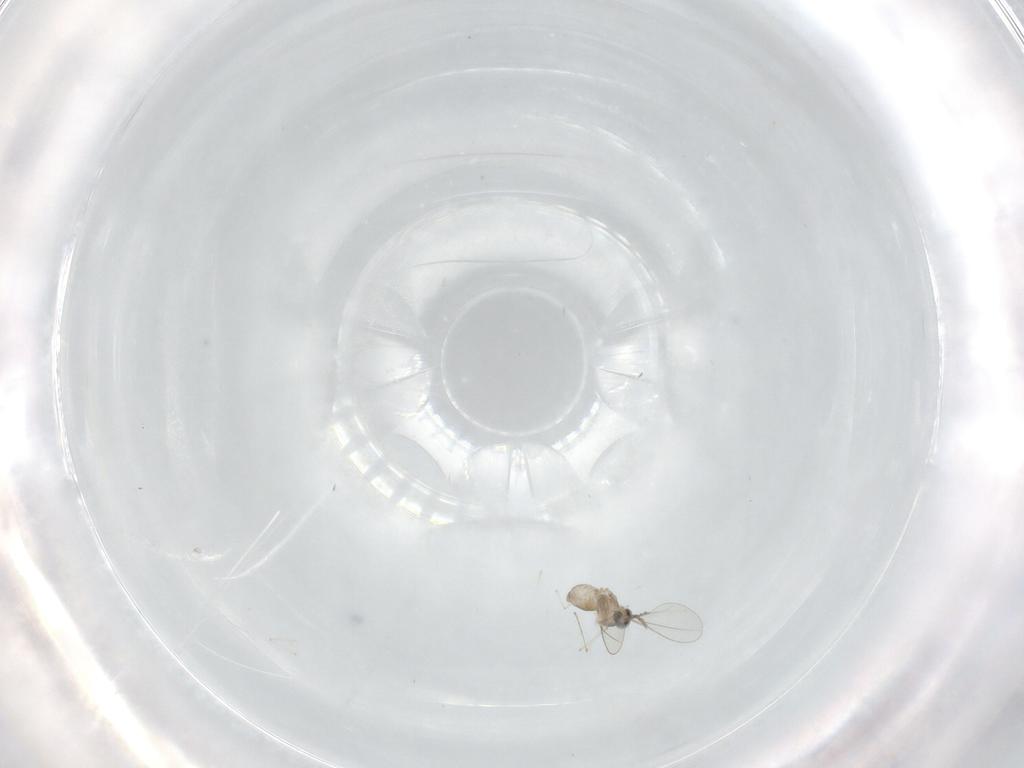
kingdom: Animalia
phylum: Arthropoda
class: Insecta
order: Diptera
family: Cecidomyiidae
